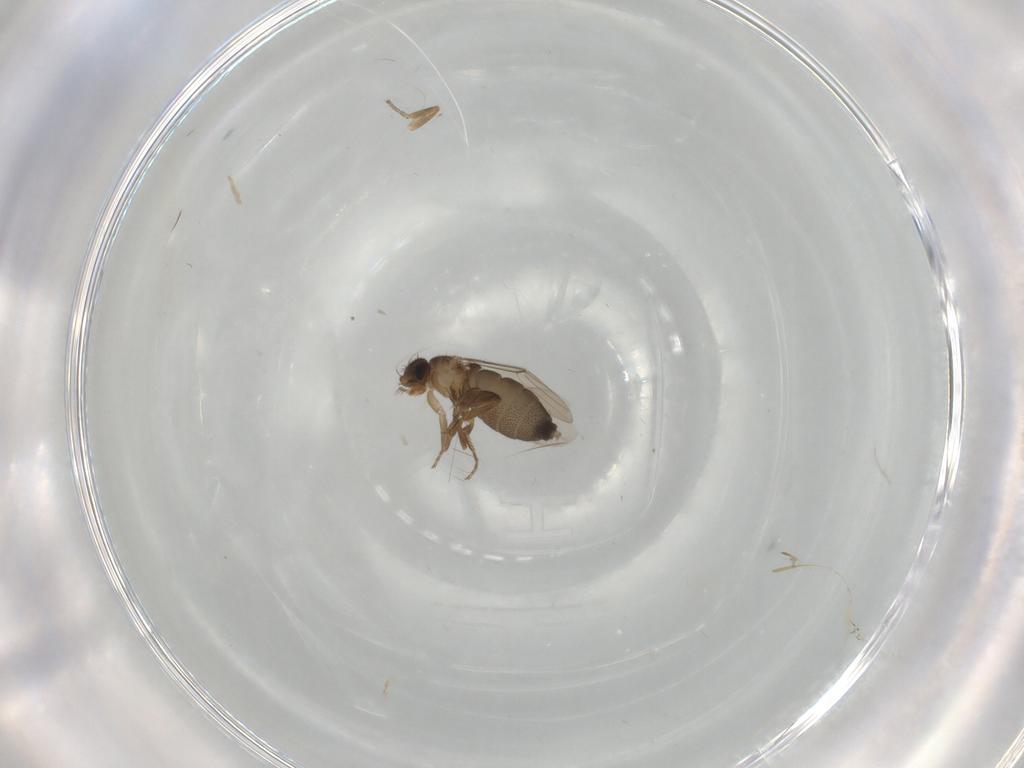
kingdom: Animalia
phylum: Arthropoda
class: Insecta
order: Diptera
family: Phoridae
